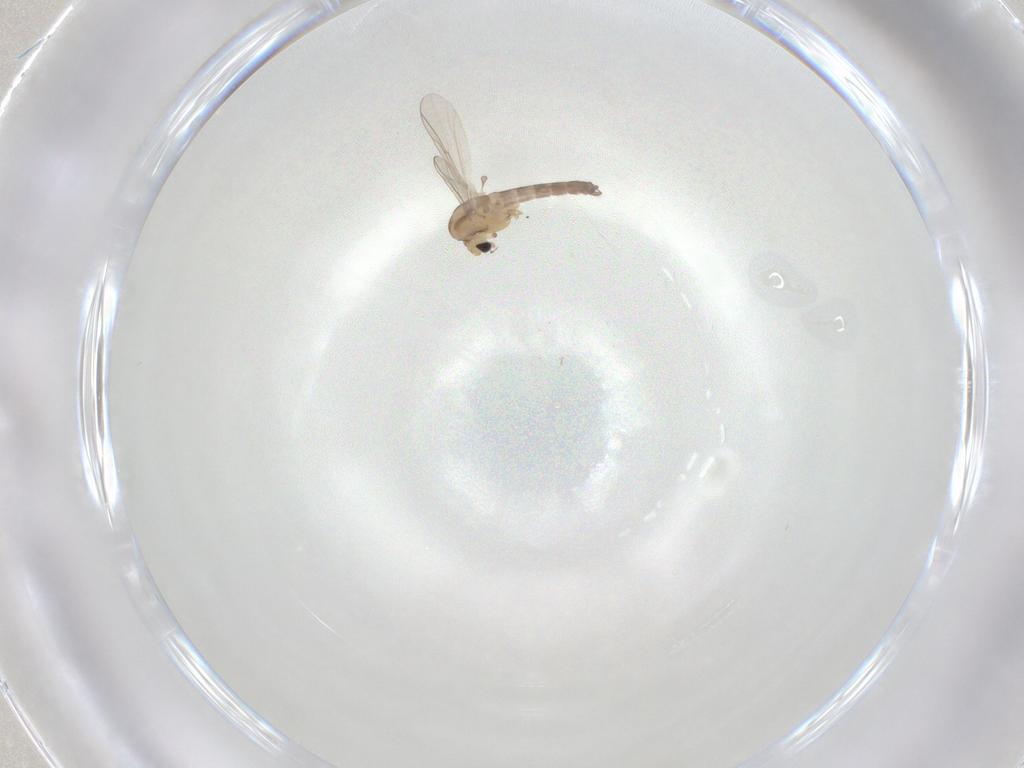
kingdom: Animalia
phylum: Arthropoda
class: Insecta
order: Diptera
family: Chironomidae
